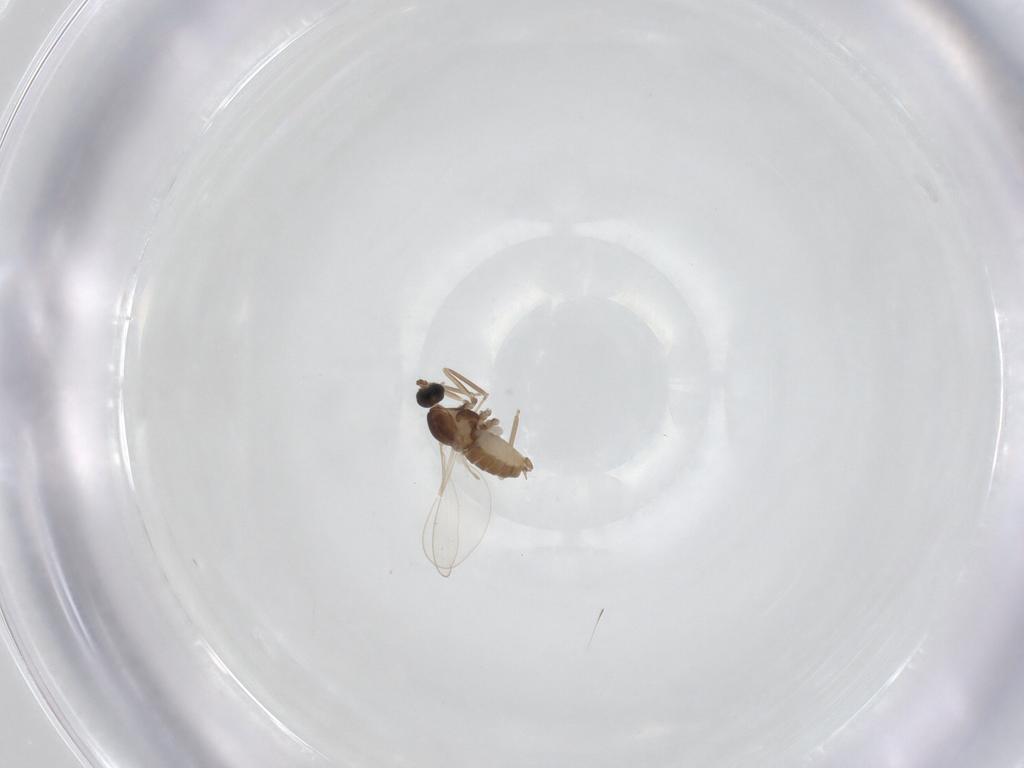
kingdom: Animalia
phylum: Arthropoda
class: Insecta
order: Diptera
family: Cecidomyiidae
